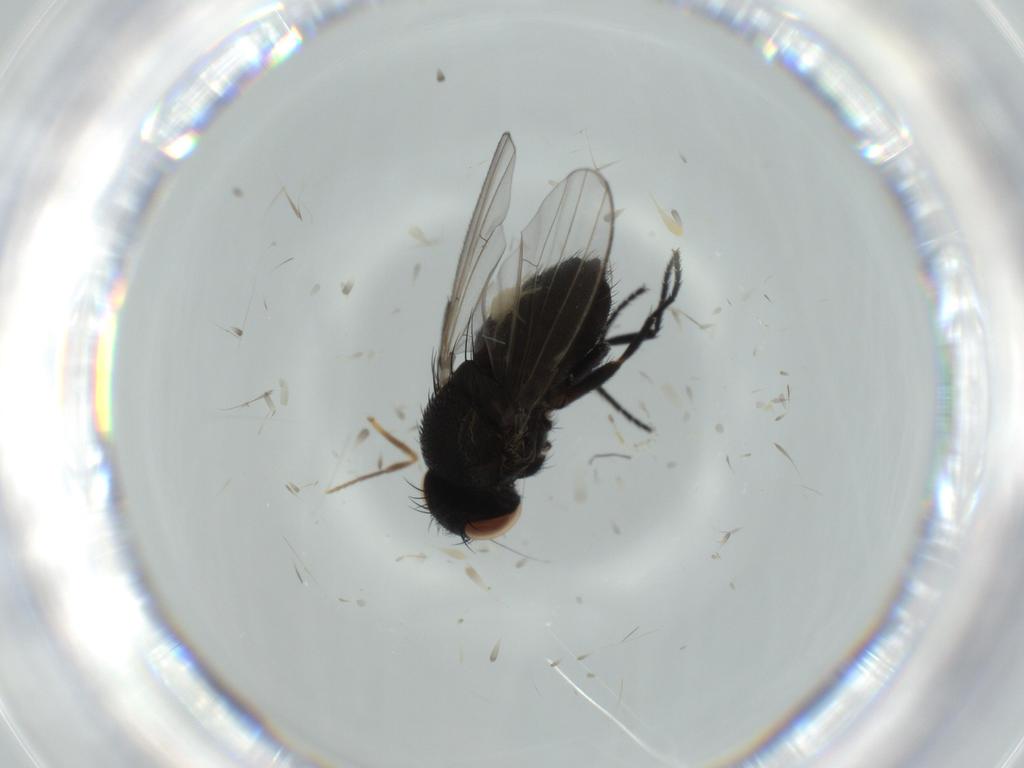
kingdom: Animalia
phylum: Arthropoda
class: Insecta
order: Diptera
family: Milichiidae
